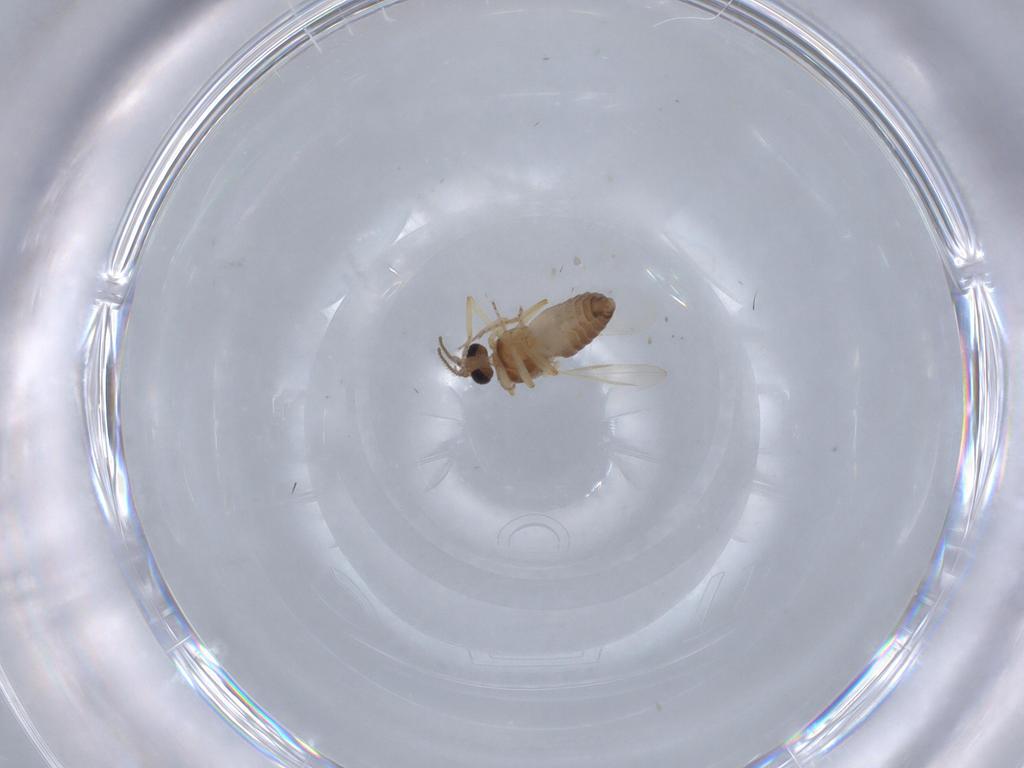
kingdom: Animalia
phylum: Arthropoda
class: Insecta
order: Diptera
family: Ceratopogonidae
